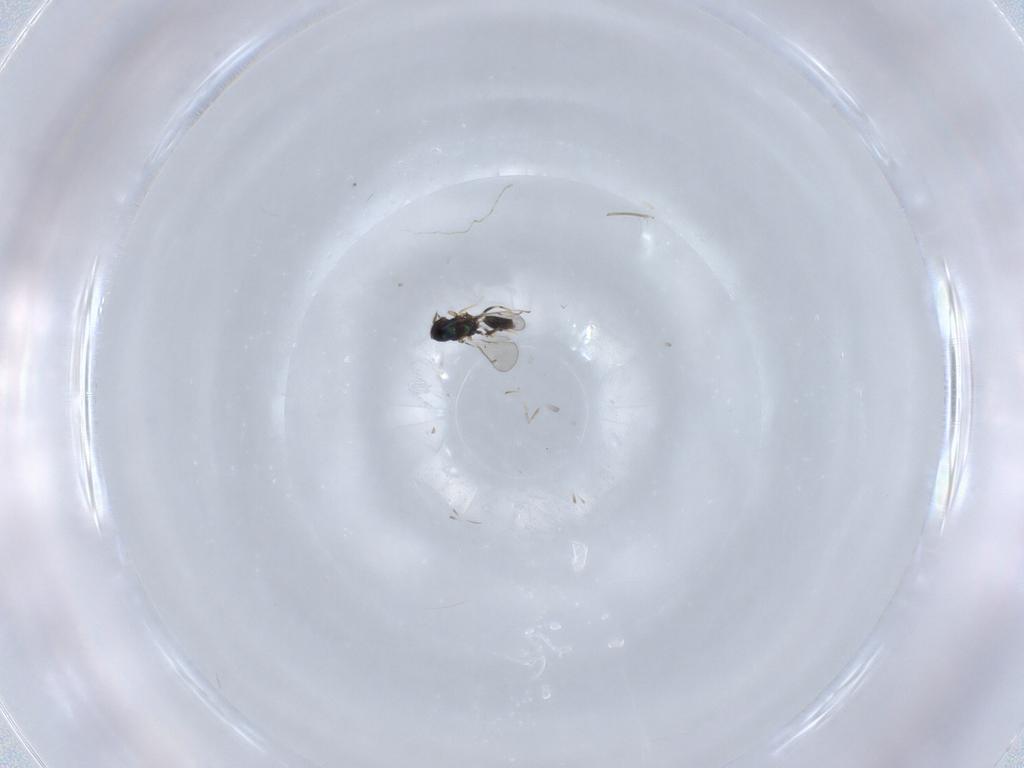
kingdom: Animalia
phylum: Arthropoda
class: Insecta
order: Hymenoptera
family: Eulophidae
